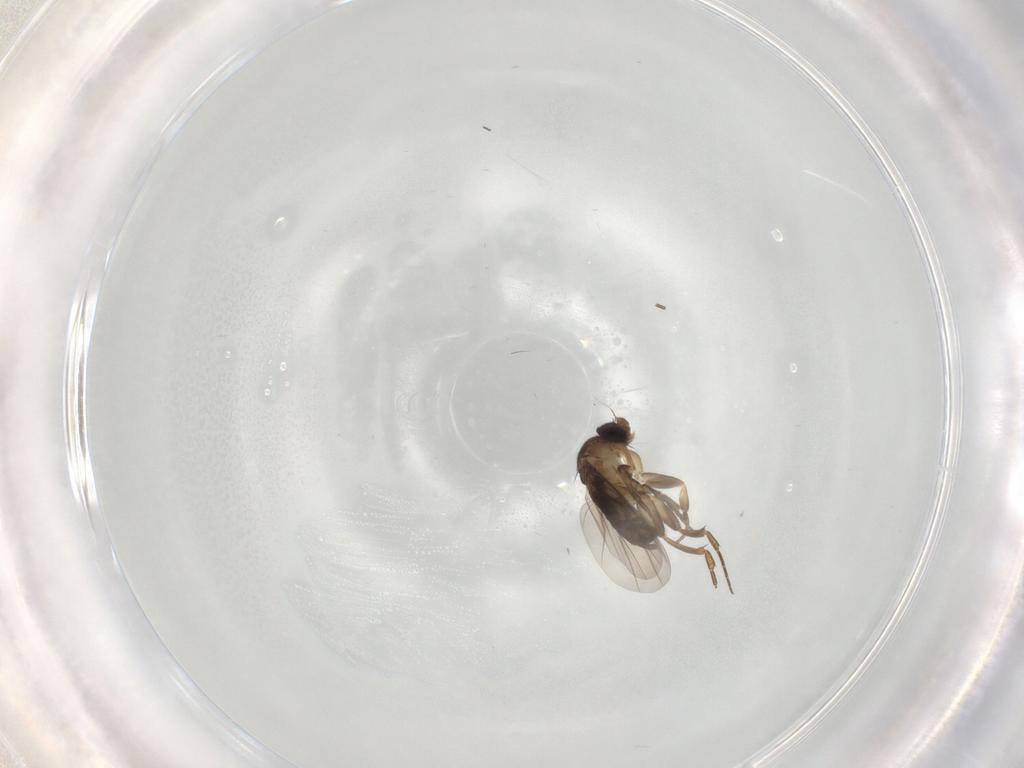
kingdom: Animalia
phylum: Arthropoda
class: Insecta
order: Diptera
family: Phoridae
